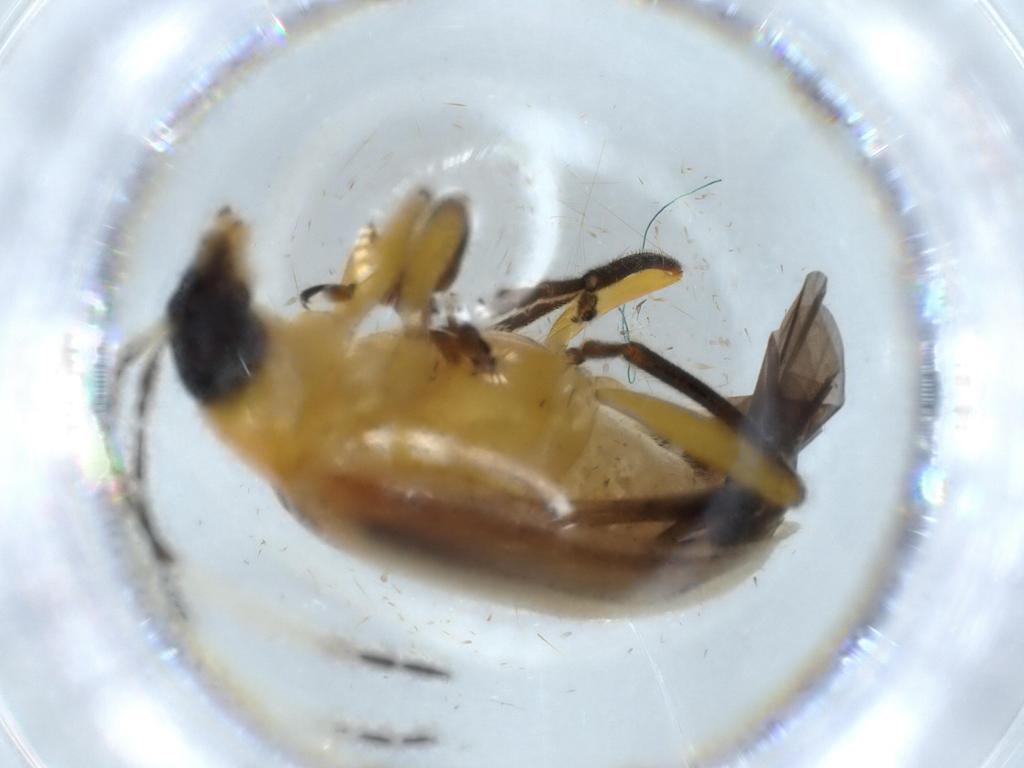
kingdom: Animalia
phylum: Arthropoda
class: Insecta
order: Coleoptera
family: Chrysomelidae
